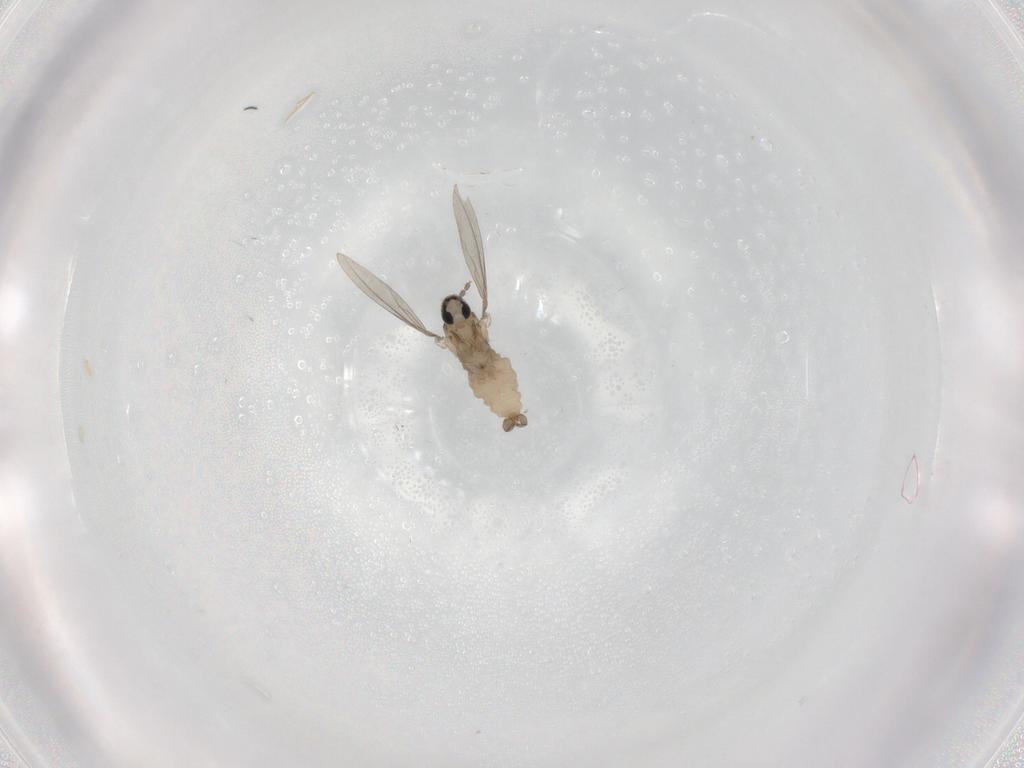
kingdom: Animalia
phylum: Arthropoda
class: Insecta
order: Diptera
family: Cecidomyiidae
